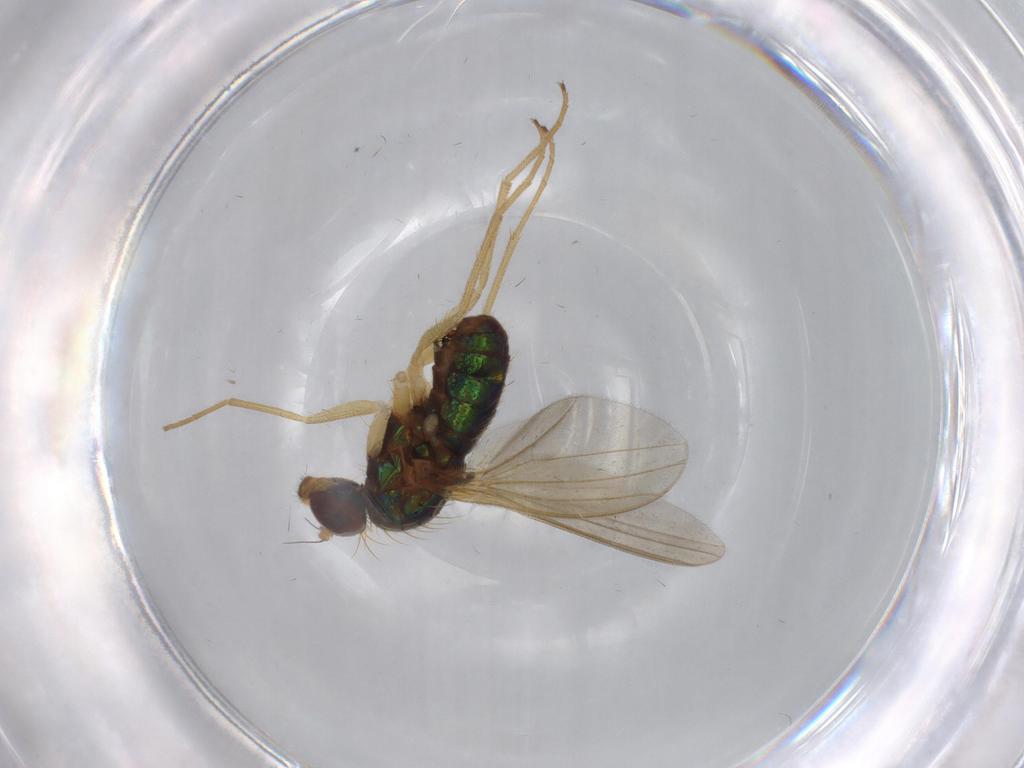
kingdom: Animalia
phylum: Arthropoda
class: Insecta
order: Diptera
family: Dolichopodidae
